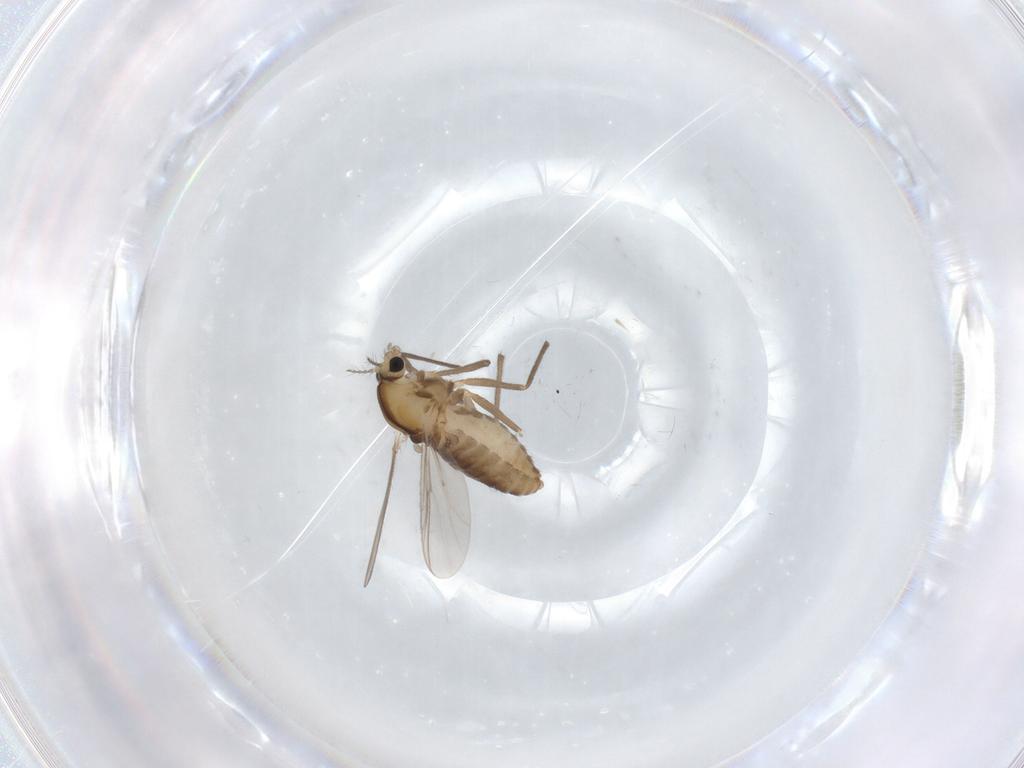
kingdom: Animalia
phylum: Arthropoda
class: Insecta
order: Diptera
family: Chironomidae
